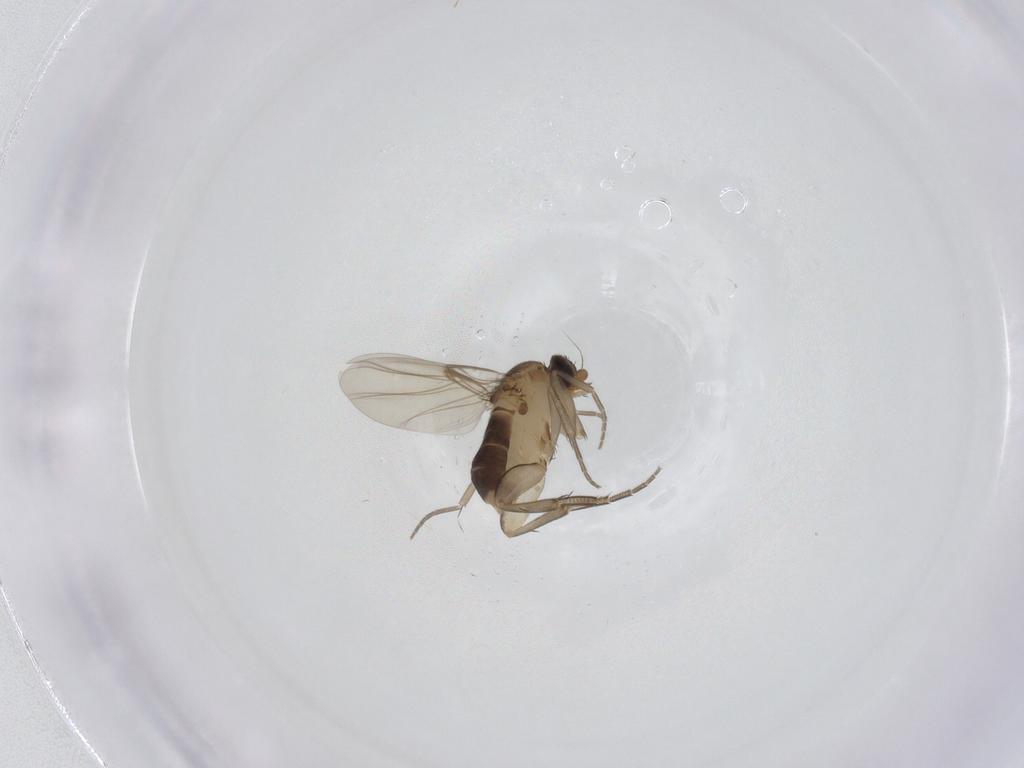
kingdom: Animalia
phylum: Arthropoda
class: Insecta
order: Diptera
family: Phoridae
